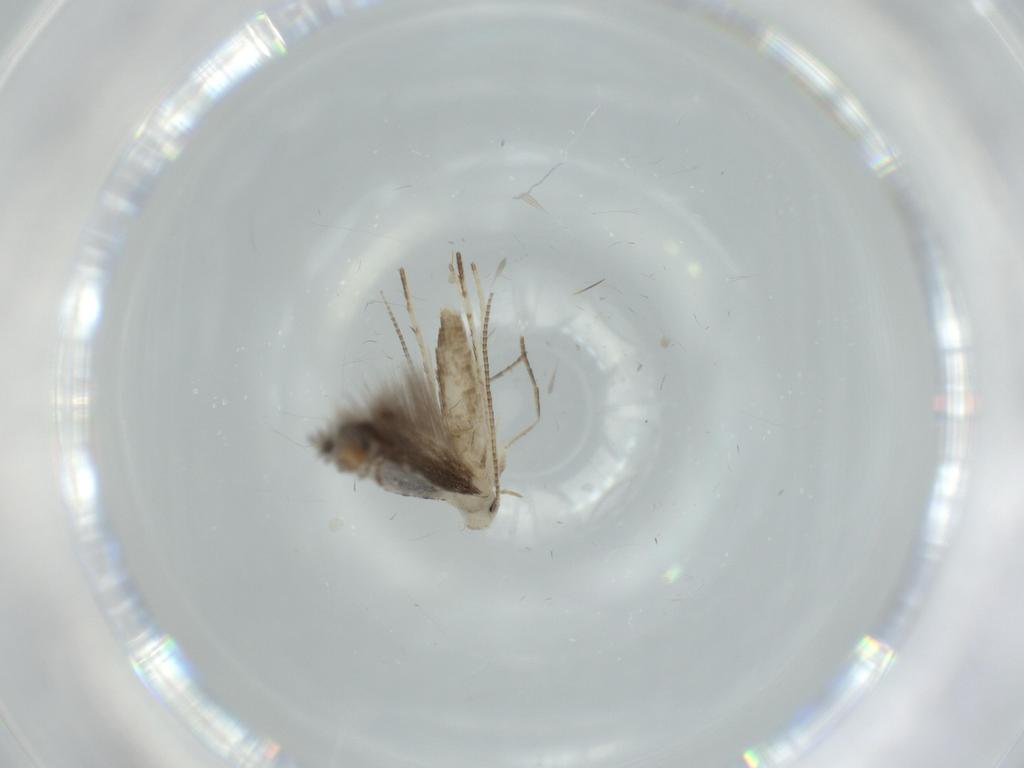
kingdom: Animalia
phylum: Arthropoda
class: Insecta
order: Lepidoptera
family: Gracillariidae
